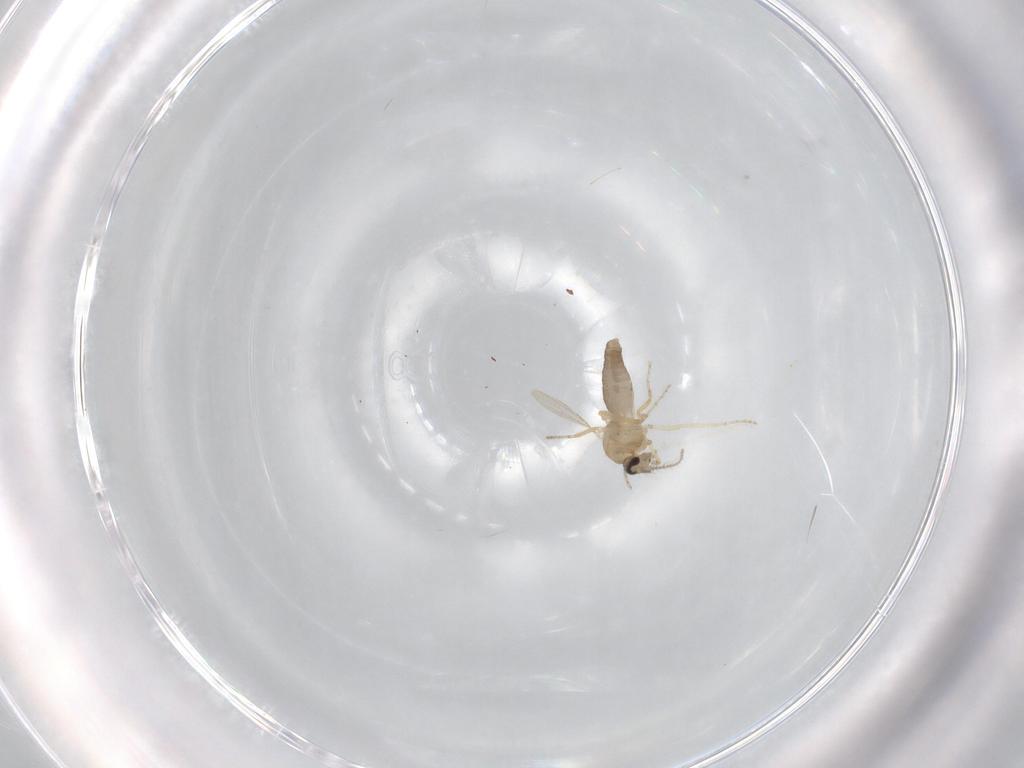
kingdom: Animalia
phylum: Arthropoda
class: Insecta
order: Diptera
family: Ceratopogonidae
